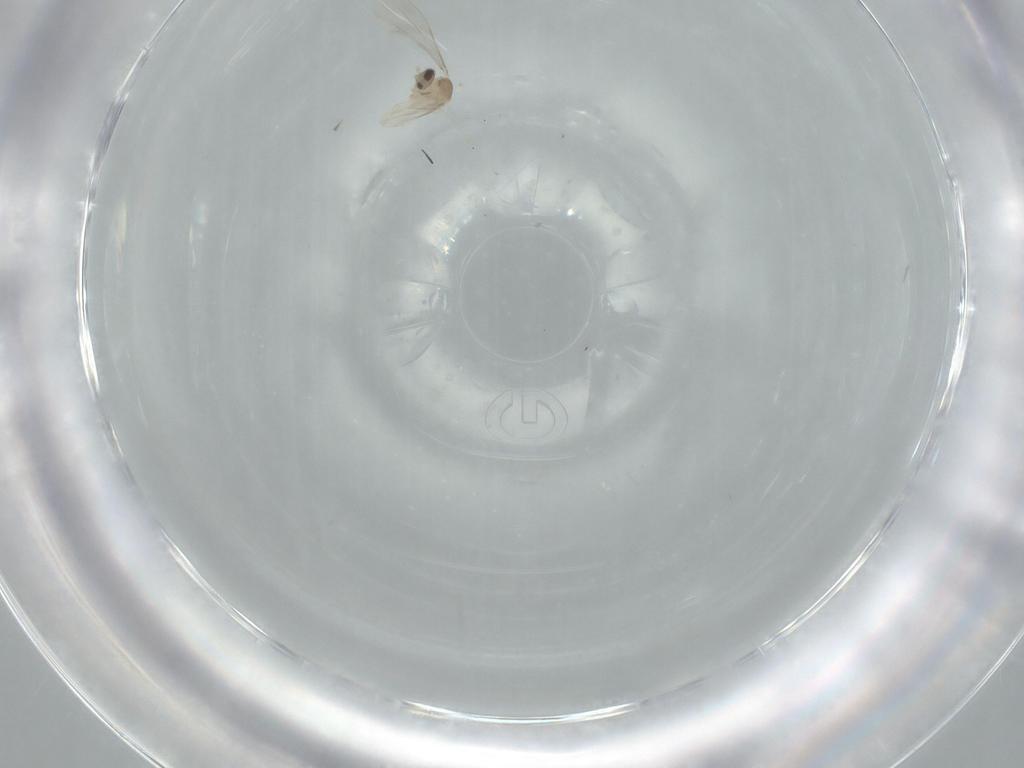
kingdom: Animalia
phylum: Arthropoda
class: Insecta
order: Diptera
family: Cecidomyiidae
